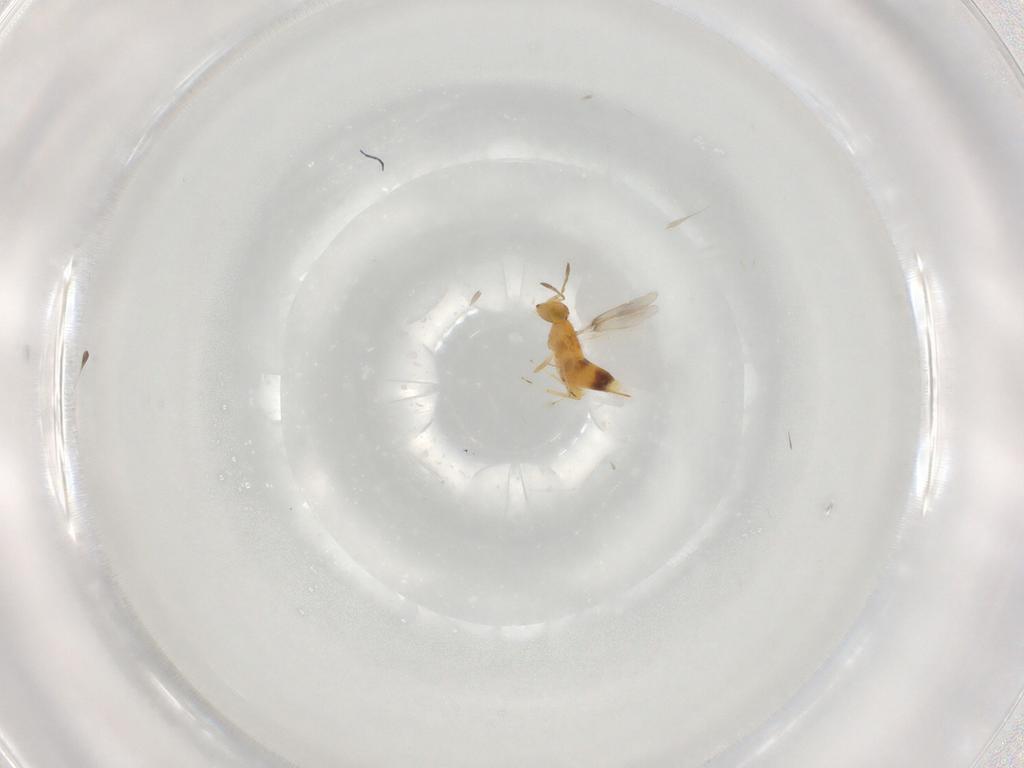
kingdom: Animalia
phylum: Arthropoda
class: Insecta
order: Hymenoptera
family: Aphelinidae
